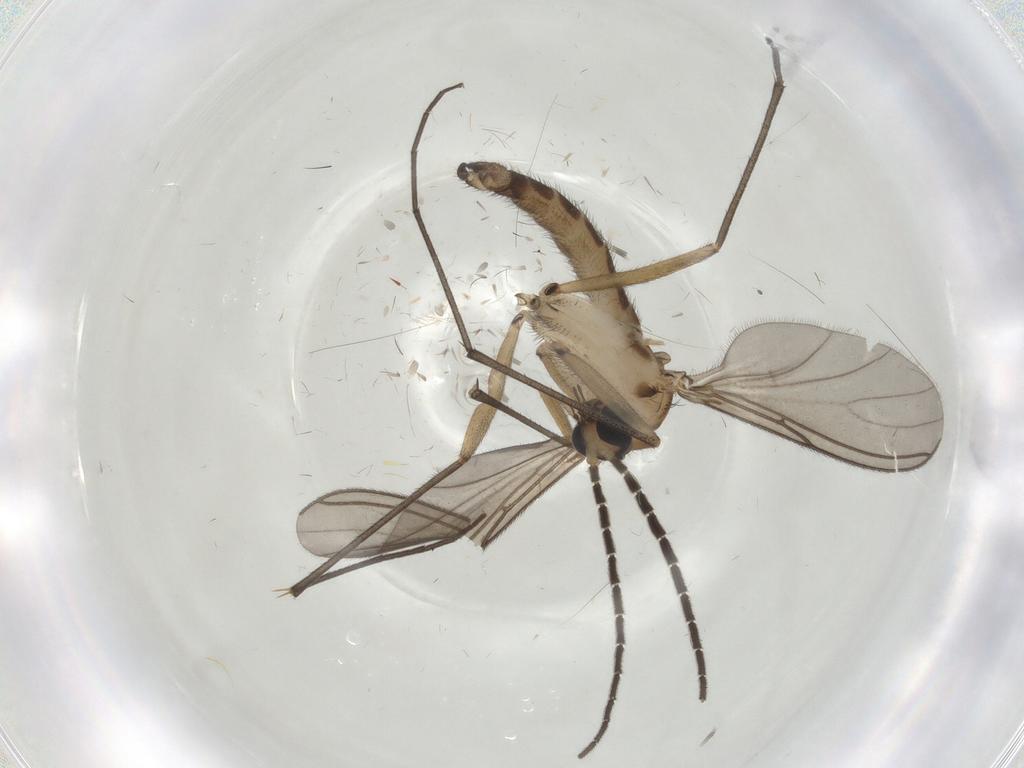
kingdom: Animalia
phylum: Arthropoda
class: Insecta
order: Diptera
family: Sciaridae
